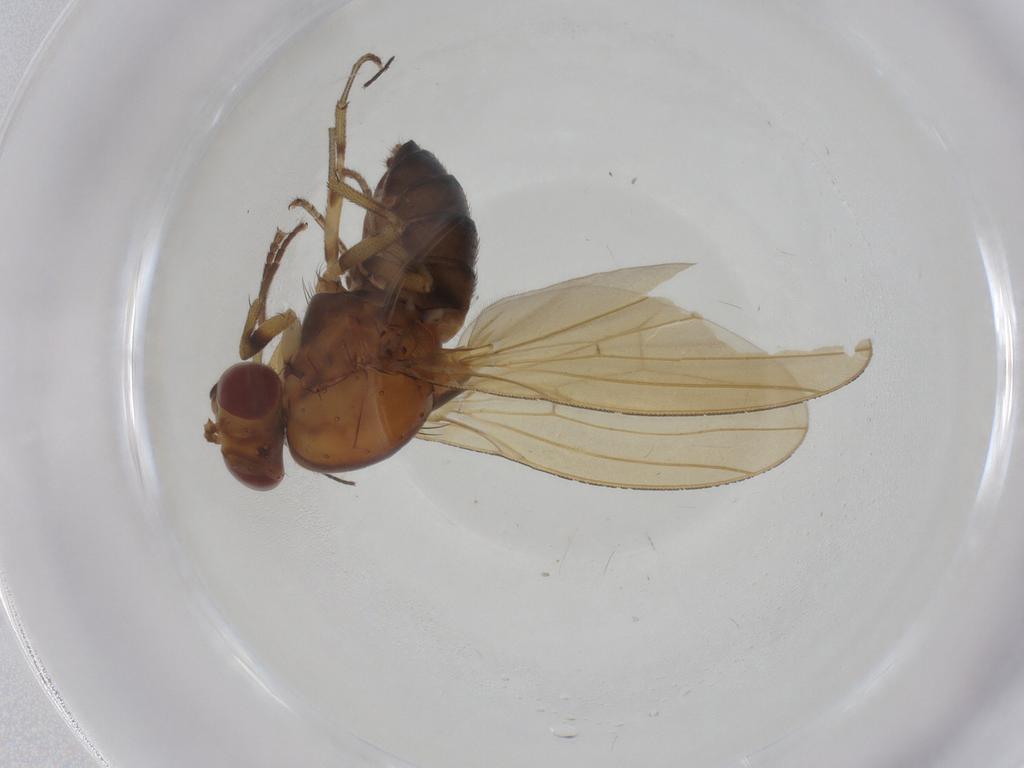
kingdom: Animalia
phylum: Arthropoda
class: Insecta
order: Diptera
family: Sciaridae
